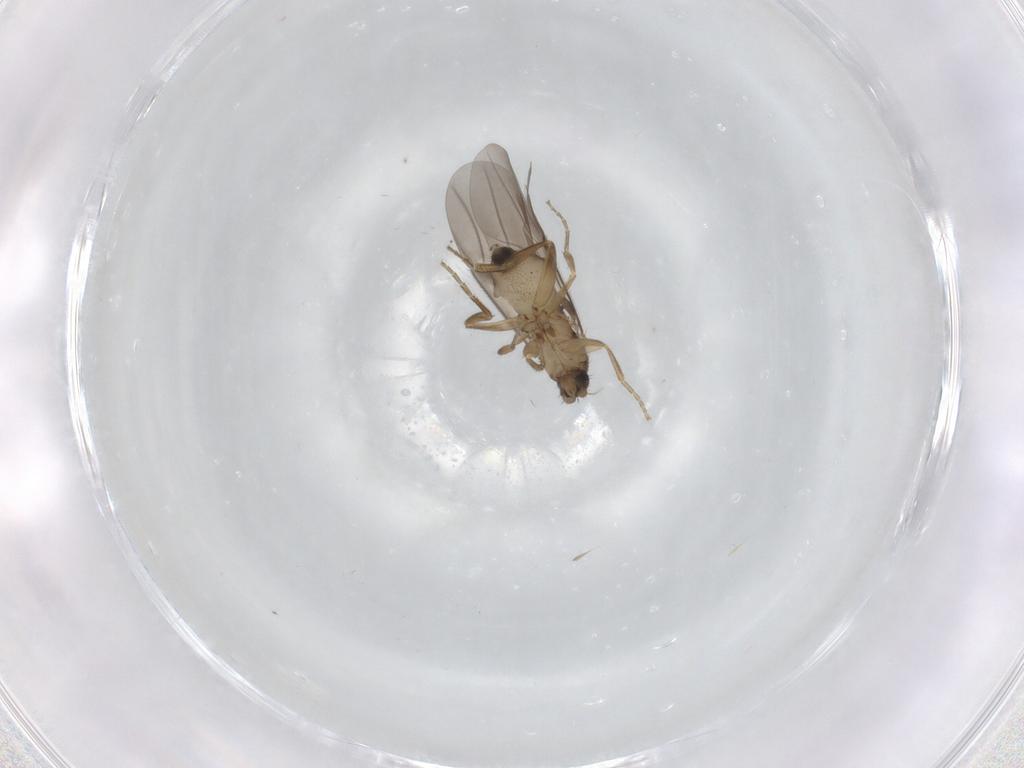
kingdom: Animalia
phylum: Arthropoda
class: Insecta
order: Diptera
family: Phoridae
